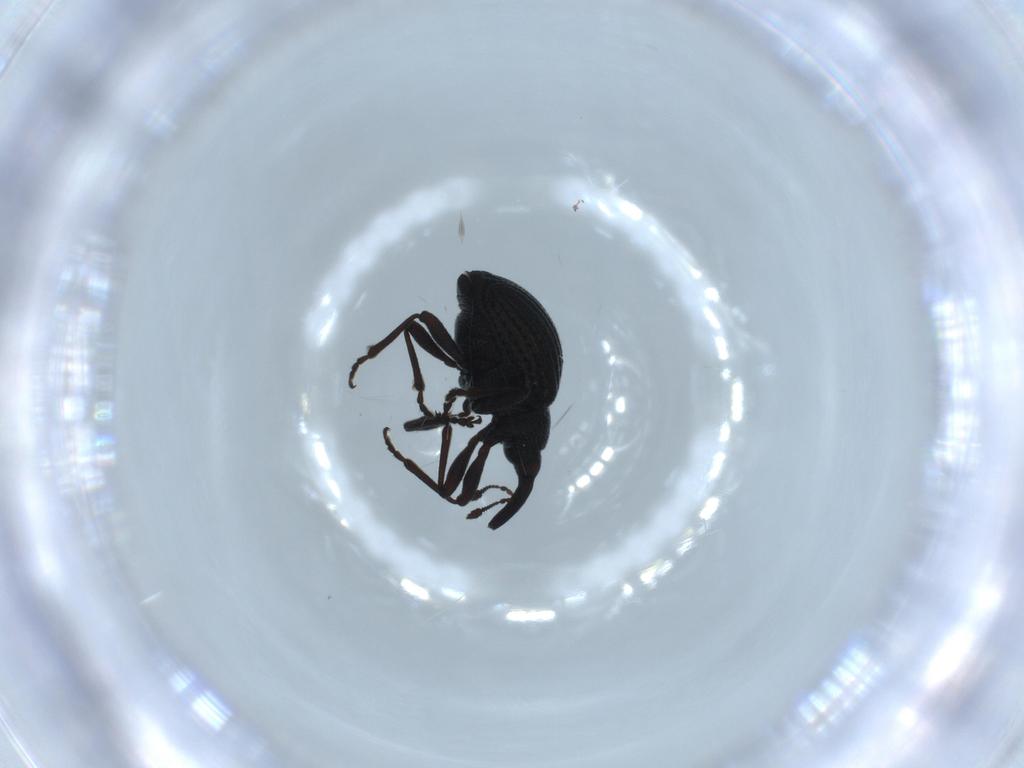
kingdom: Animalia
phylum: Arthropoda
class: Insecta
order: Coleoptera
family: Brentidae
